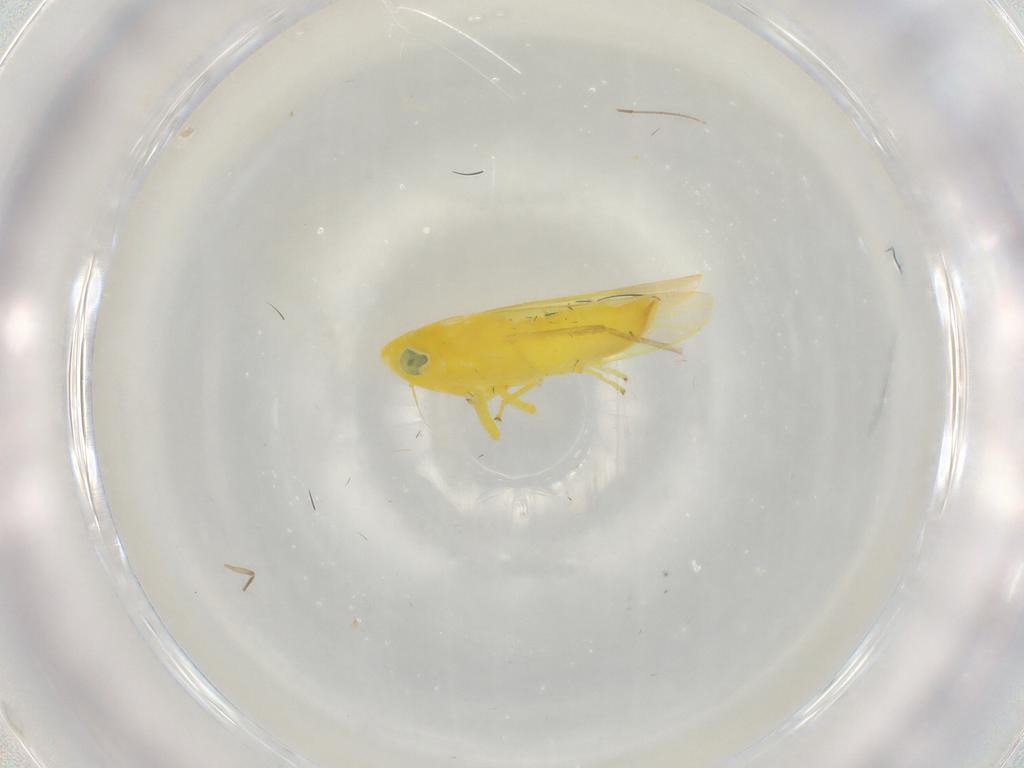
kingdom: Animalia
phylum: Arthropoda
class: Insecta
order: Hemiptera
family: Cicadellidae
